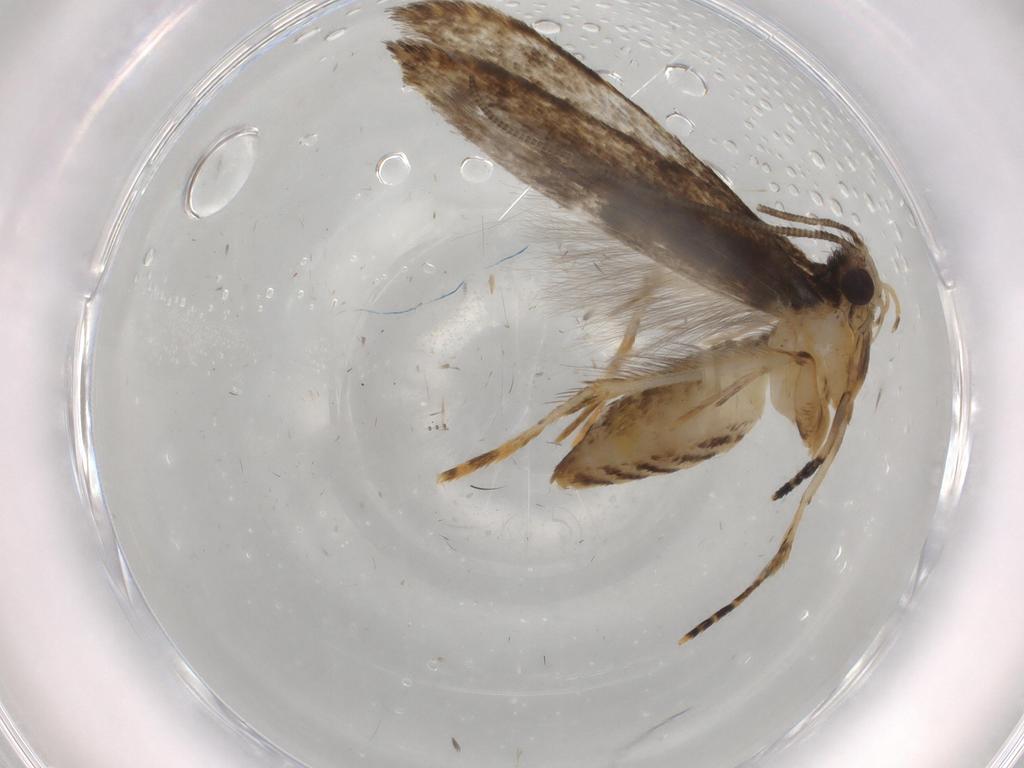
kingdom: Animalia
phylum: Arthropoda
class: Insecta
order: Lepidoptera
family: Tineidae
